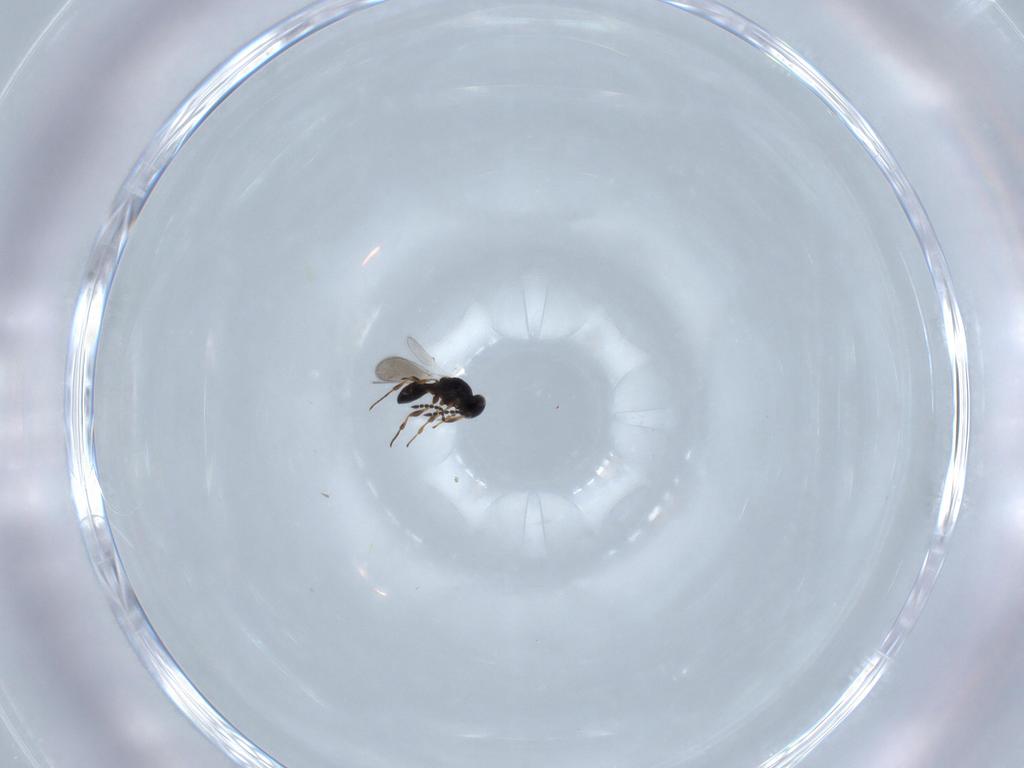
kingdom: Animalia
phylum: Arthropoda
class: Insecta
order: Hymenoptera
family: Platygastridae
